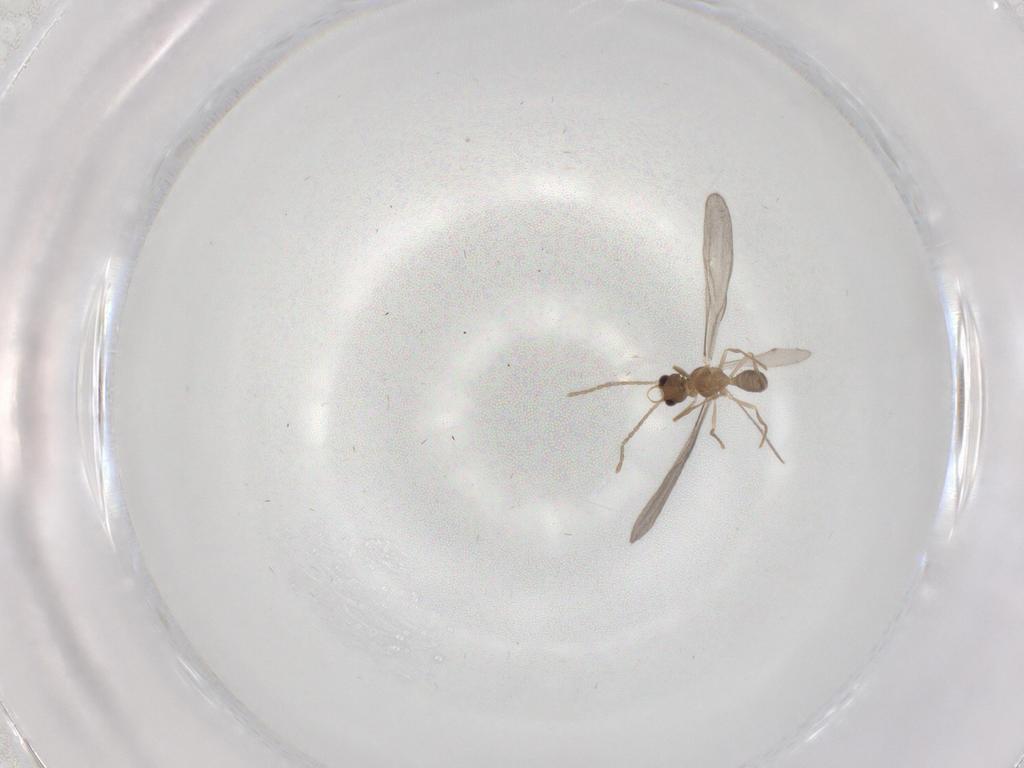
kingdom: Animalia
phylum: Arthropoda
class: Insecta
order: Hymenoptera
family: Formicidae
